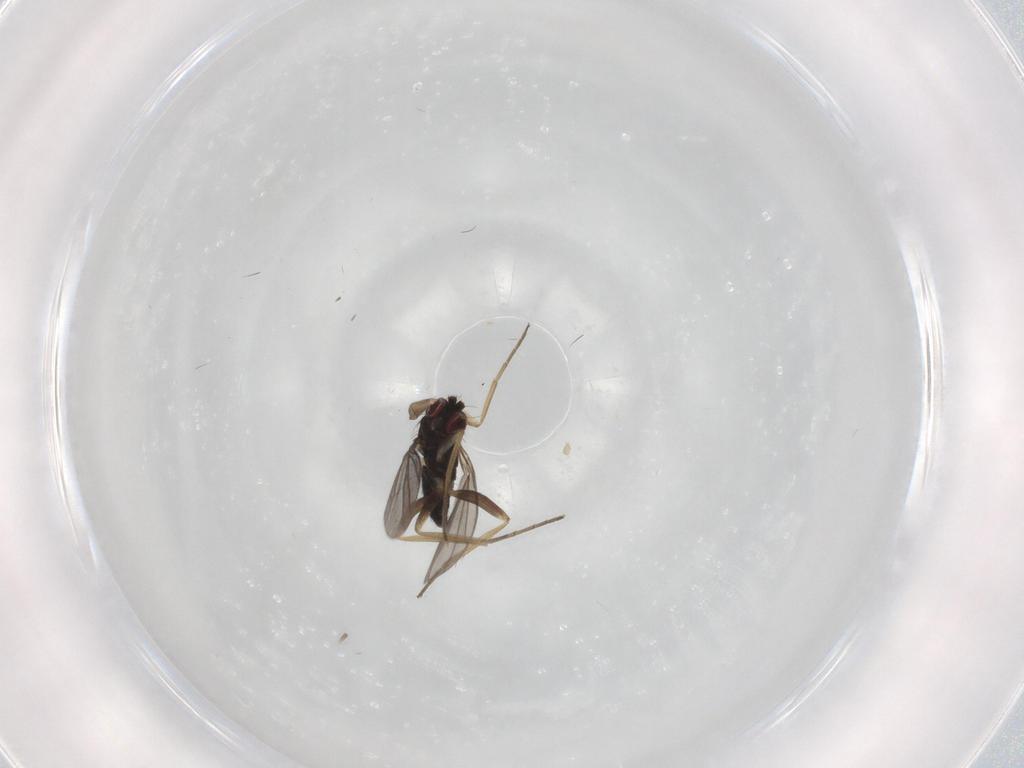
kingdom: Animalia
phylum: Arthropoda
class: Insecta
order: Diptera
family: Dolichopodidae
